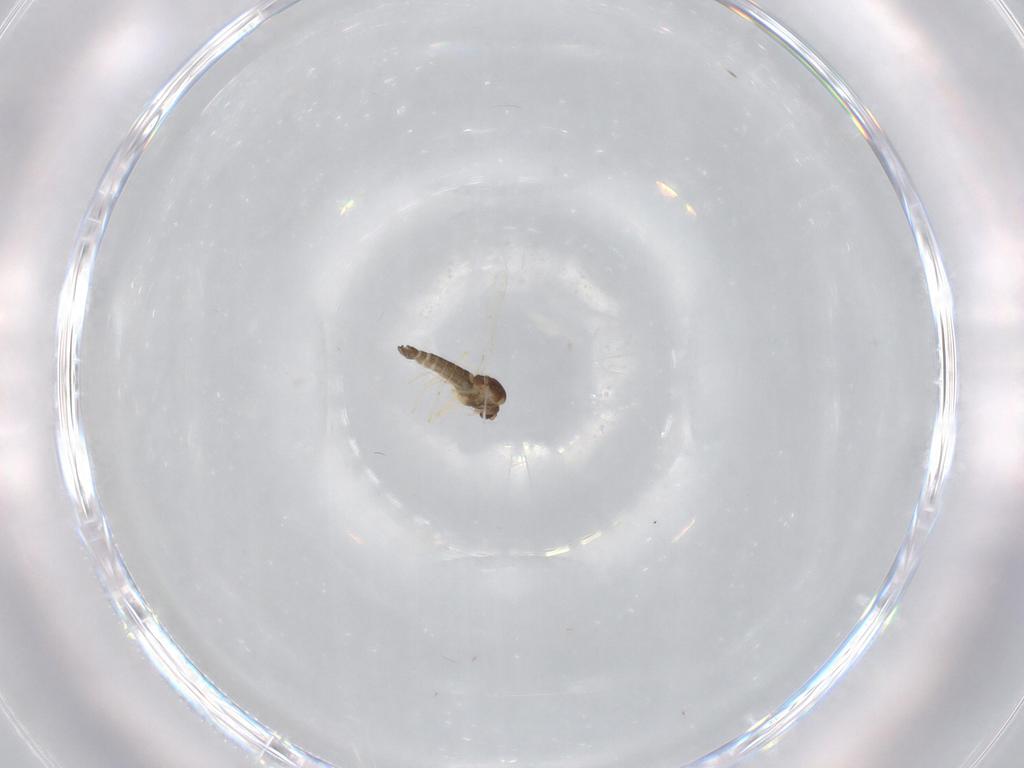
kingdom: Animalia
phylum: Arthropoda
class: Insecta
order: Diptera
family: Chironomidae
